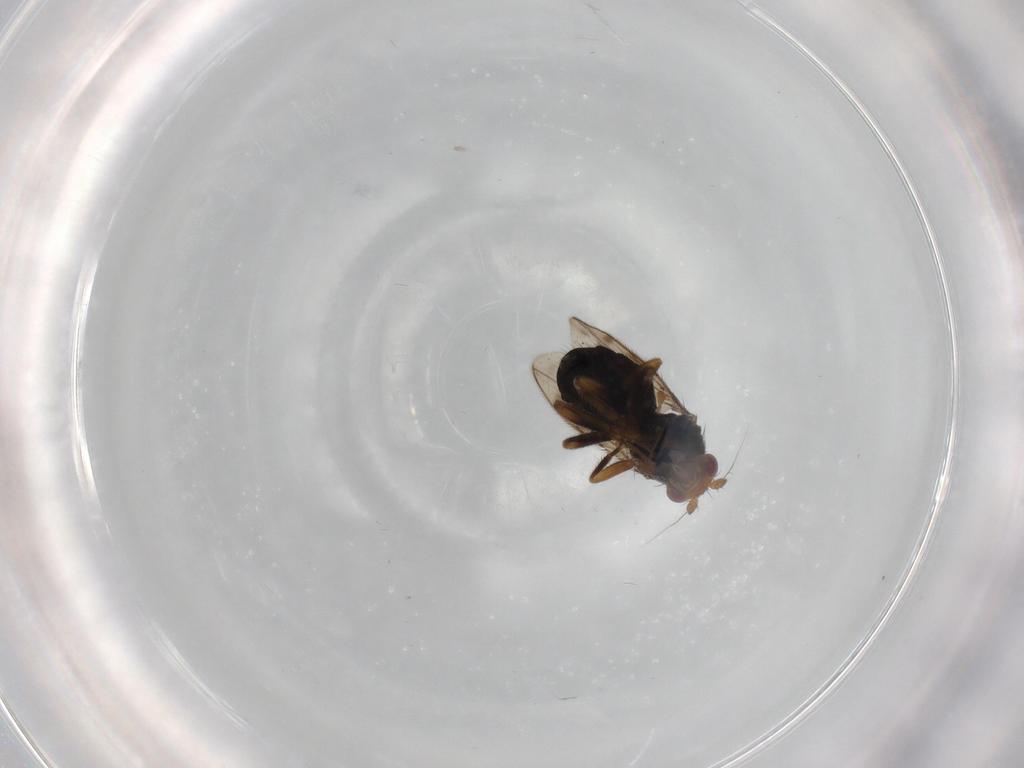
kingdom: Animalia
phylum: Arthropoda
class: Insecta
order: Diptera
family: Sphaeroceridae
